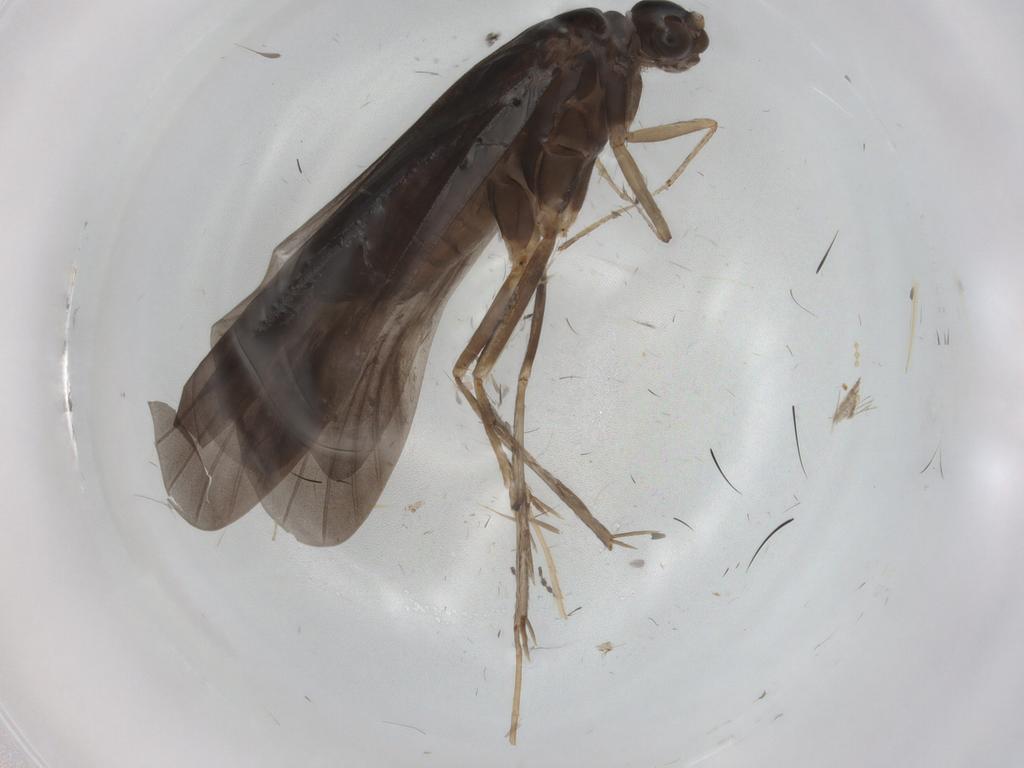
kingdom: Animalia
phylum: Arthropoda
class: Insecta
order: Trichoptera
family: Hydropsychidae
